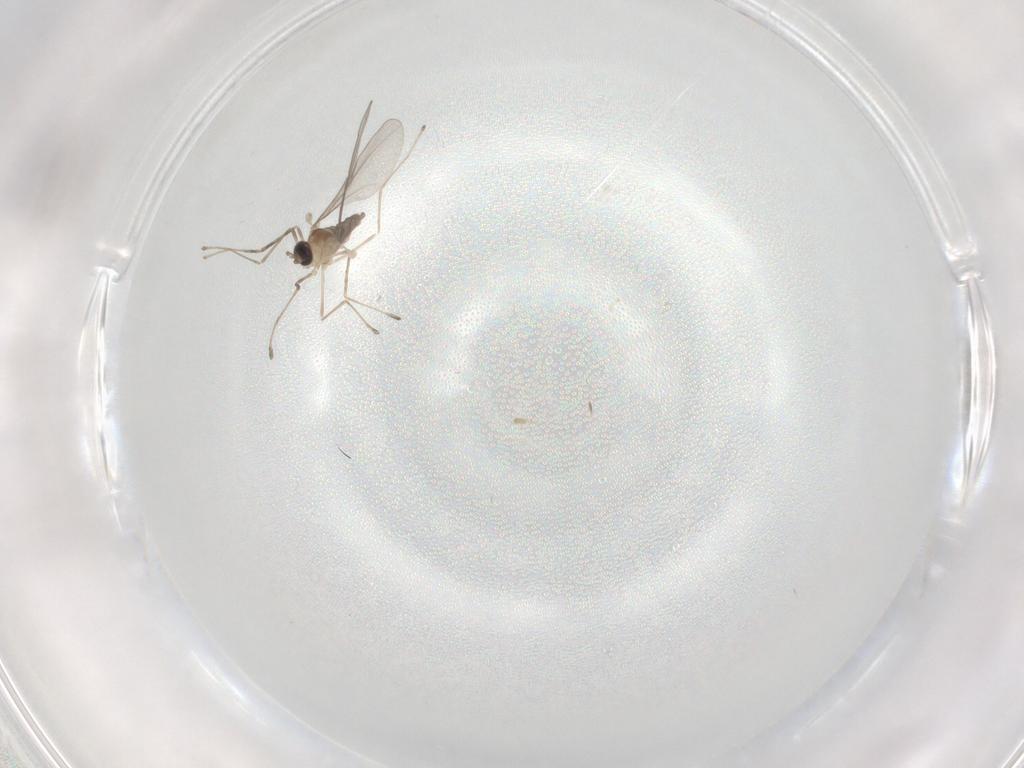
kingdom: Animalia
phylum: Arthropoda
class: Insecta
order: Diptera
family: Cecidomyiidae
